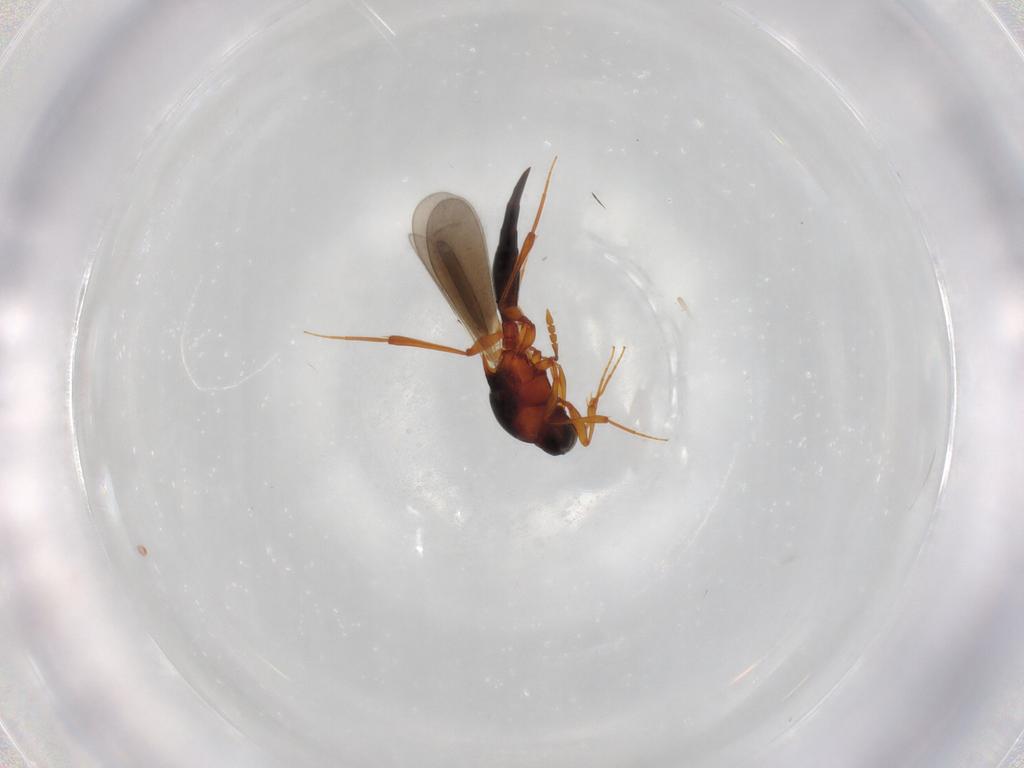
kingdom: Animalia
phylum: Arthropoda
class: Insecta
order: Hymenoptera
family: Platygastridae
